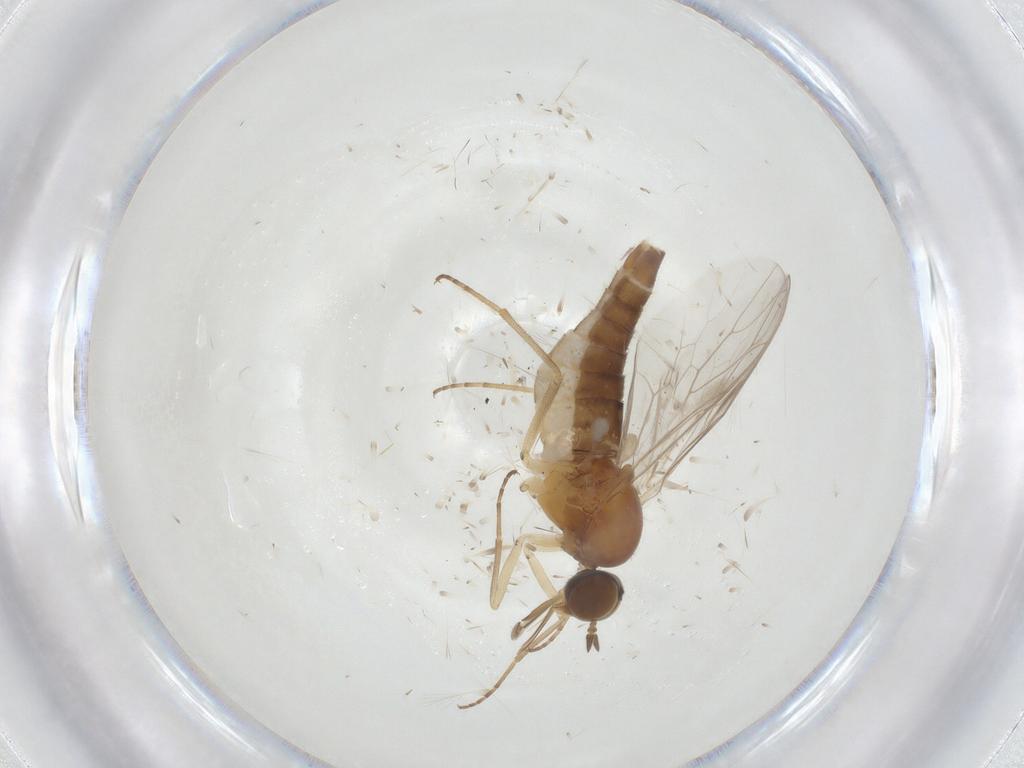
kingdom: Animalia
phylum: Arthropoda
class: Insecta
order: Diptera
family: Scenopinidae
